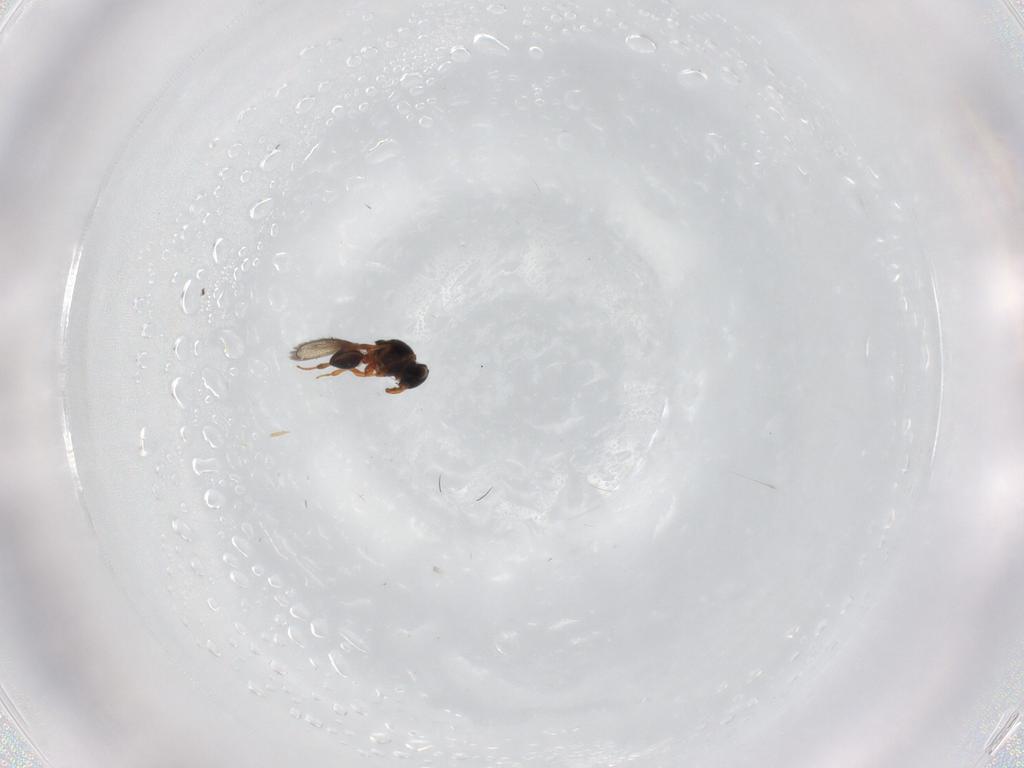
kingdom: Animalia
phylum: Arthropoda
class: Insecta
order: Hymenoptera
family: Platygastridae
